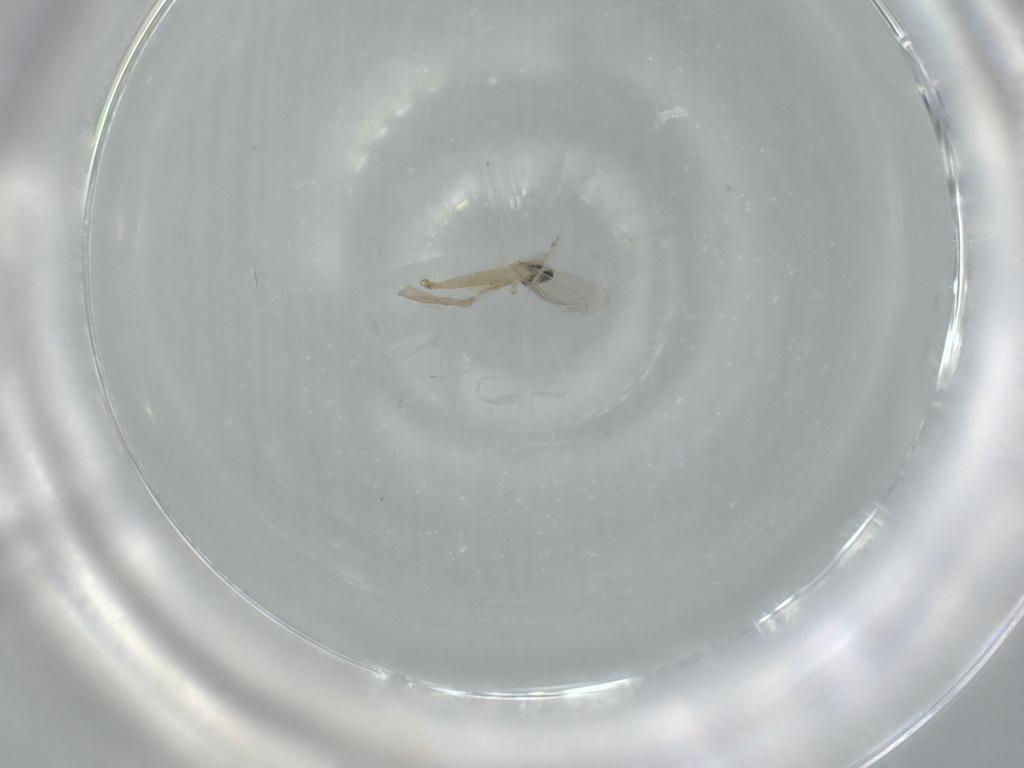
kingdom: Animalia
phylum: Arthropoda
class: Insecta
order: Diptera
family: Cecidomyiidae
